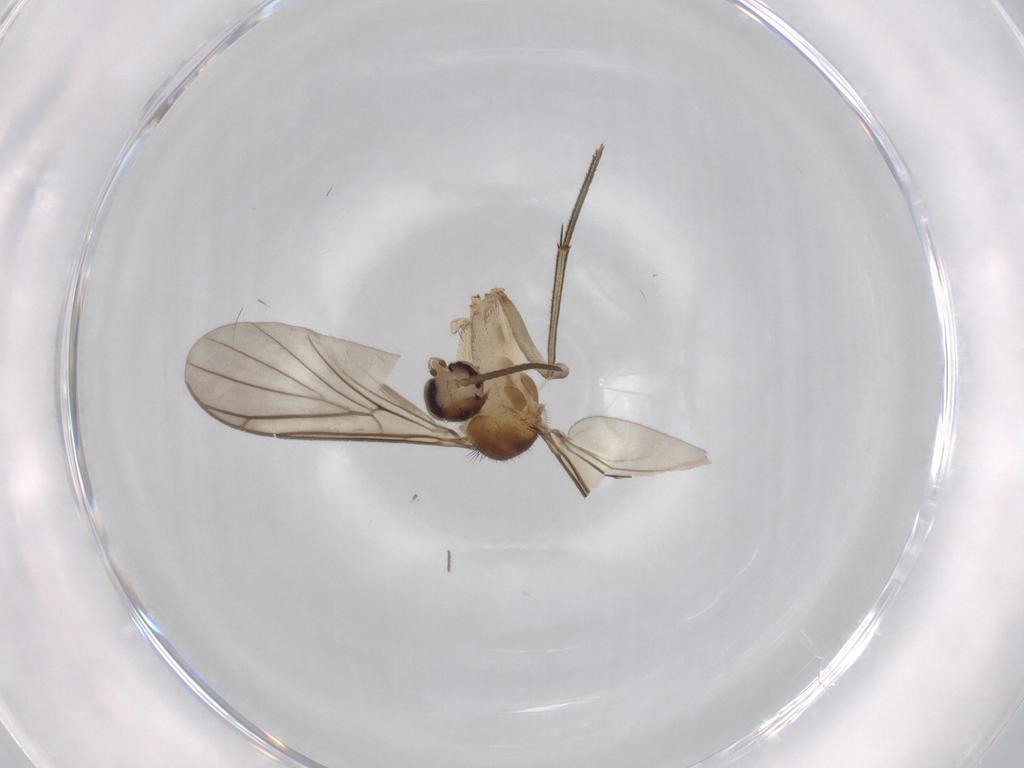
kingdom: Animalia
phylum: Arthropoda
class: Insecta
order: Diptera
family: Mycetophilidae
